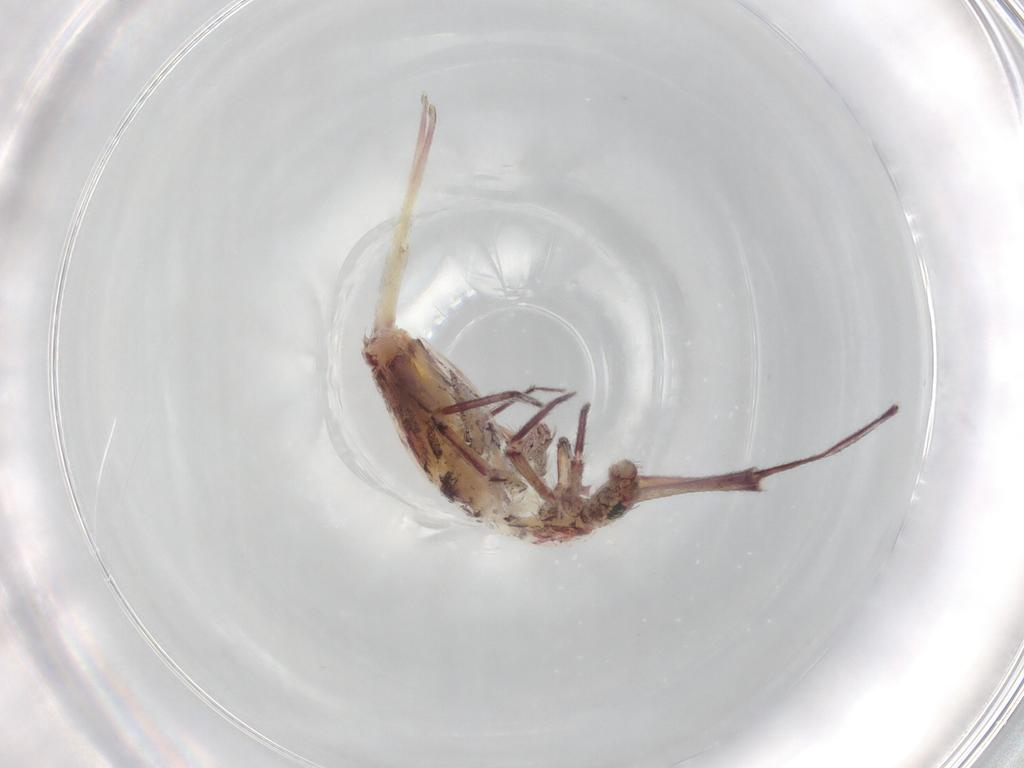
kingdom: Animalia
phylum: Arthropoda
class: Collembola
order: Entomobryomorpha
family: Entomobryidae
